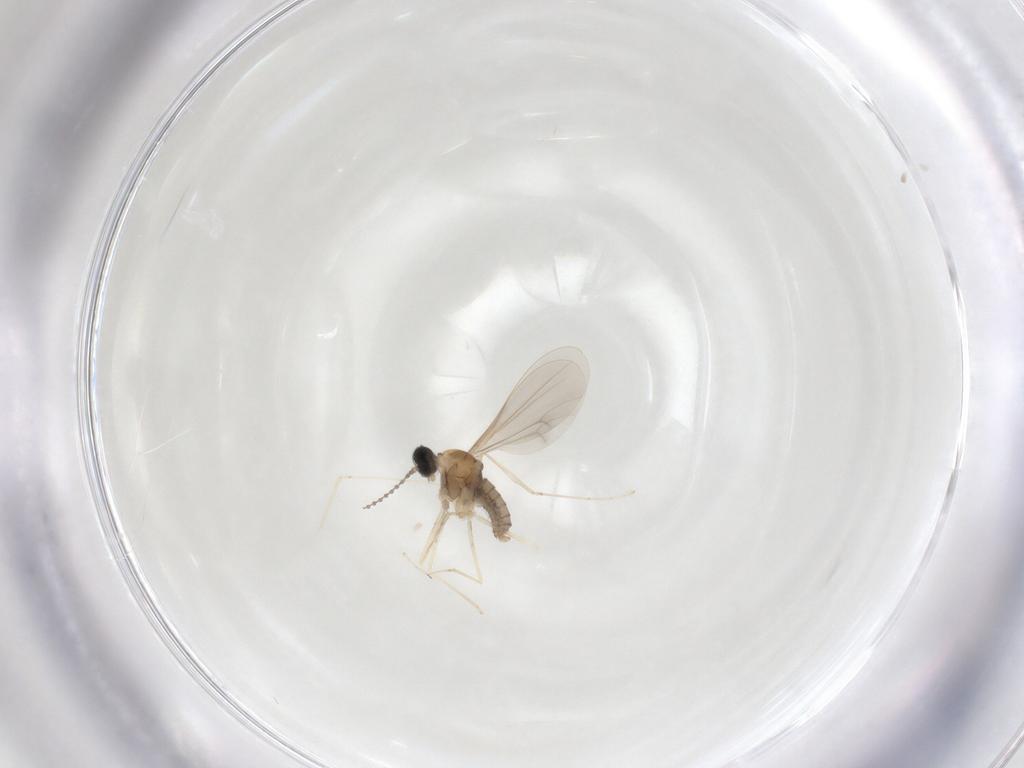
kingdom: Animalia
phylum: Arthropoda
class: Insecta
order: Diptera
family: Cecidomyiidae
